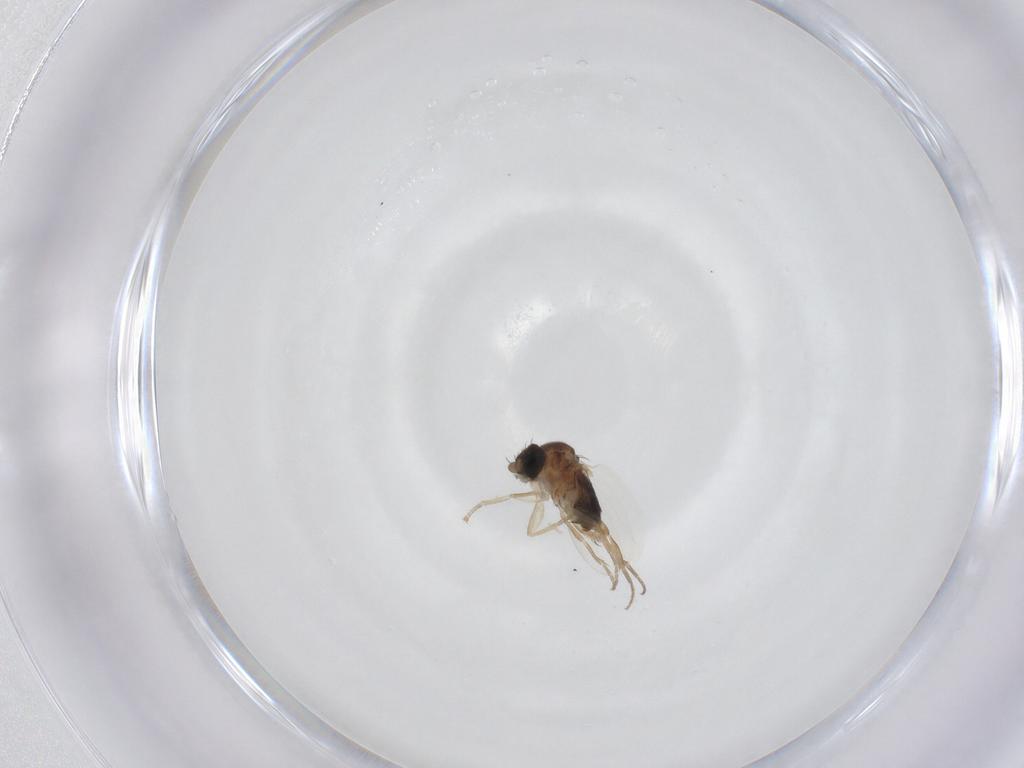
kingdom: Animalia
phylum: Arthropoda
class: Insecta
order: Diptera
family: Phoridae
